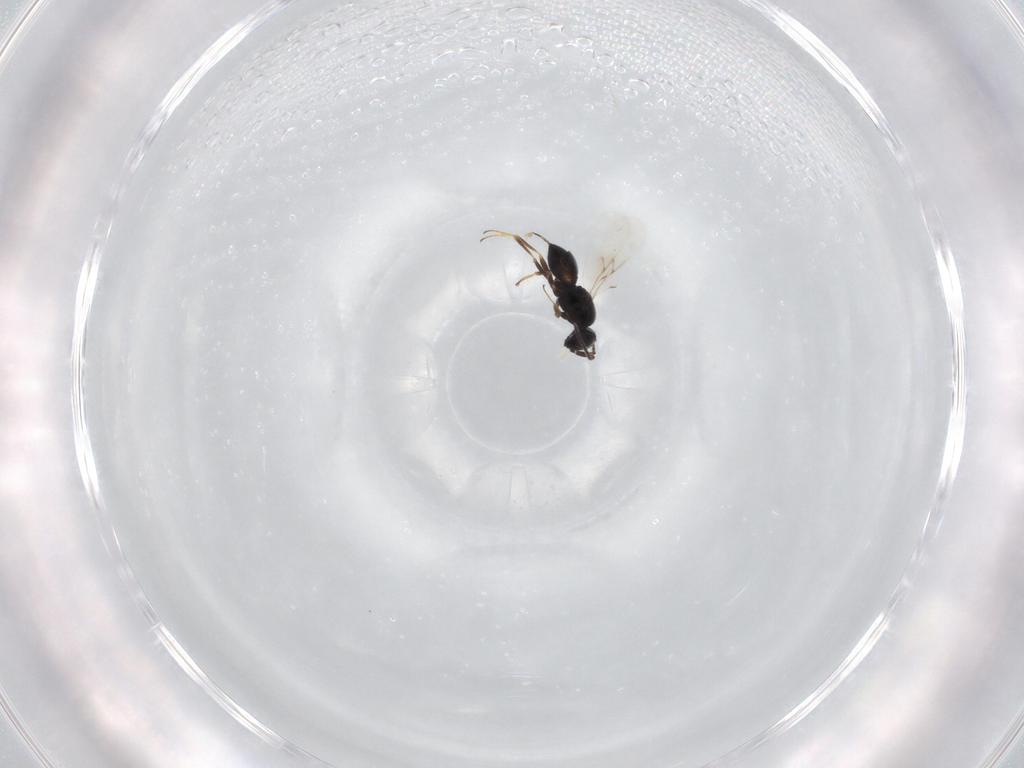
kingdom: Animalia
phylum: Arthropoda
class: Insecta
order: Hymenoptera
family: Scelionidae
